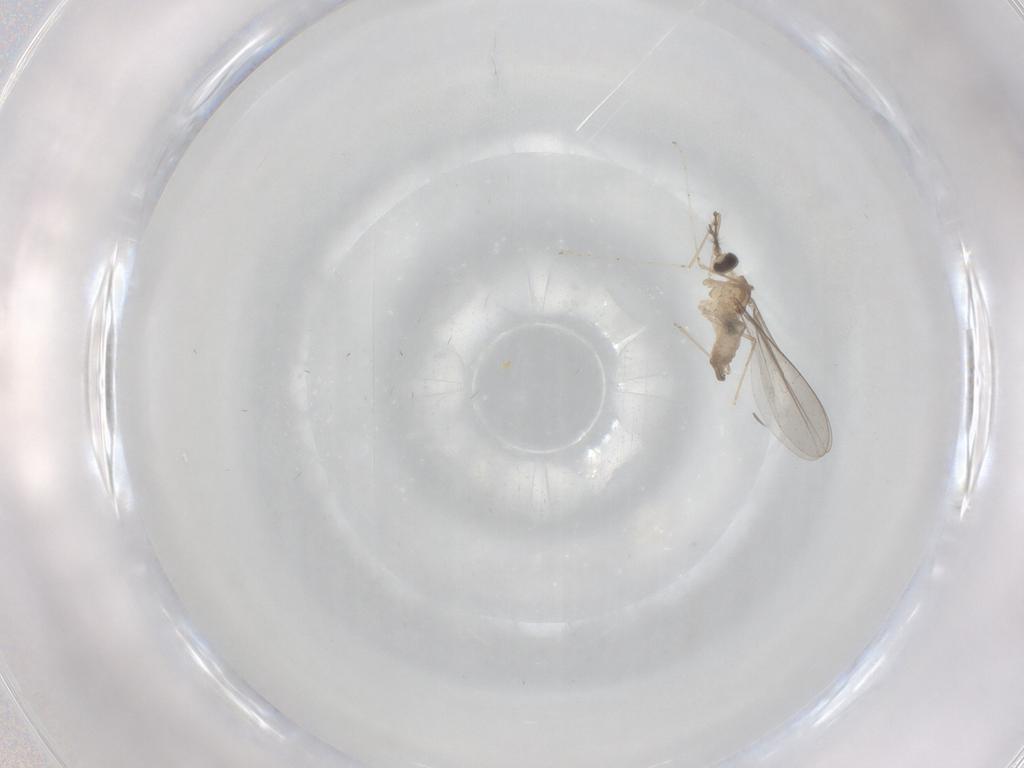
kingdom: Animalia
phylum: Arthropoda
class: Insecta
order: Diptera
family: Cecidomyiidae
